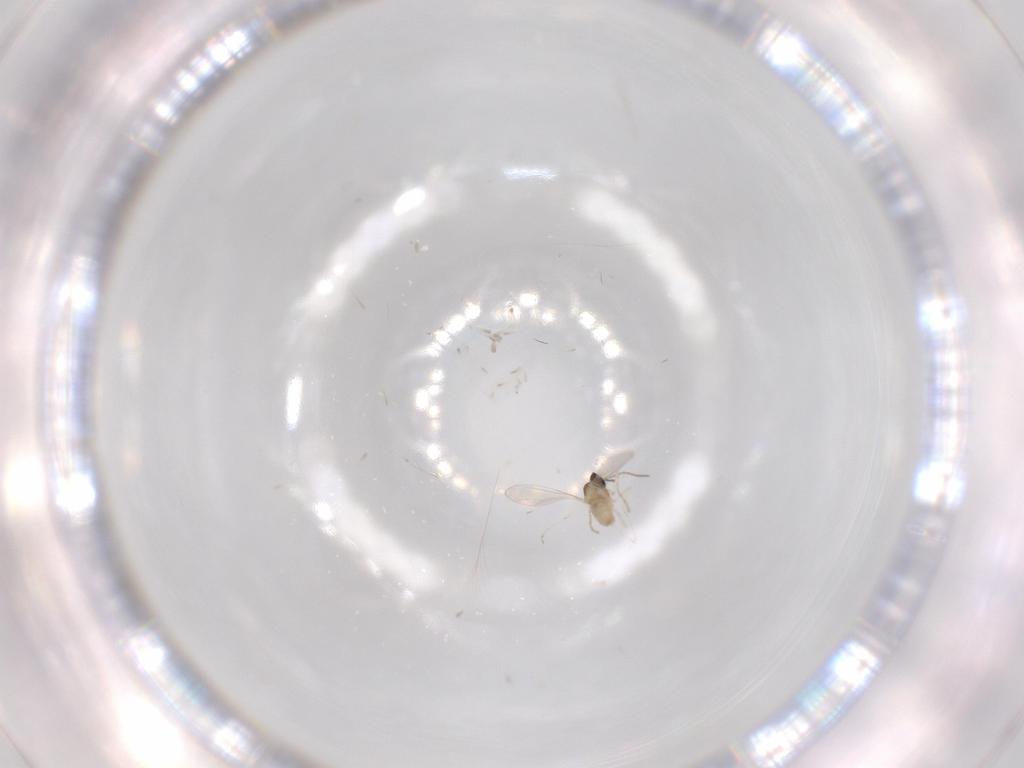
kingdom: Animalia
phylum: Arthropoda
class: Insecta
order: Diptera
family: Cecidomyiidae
